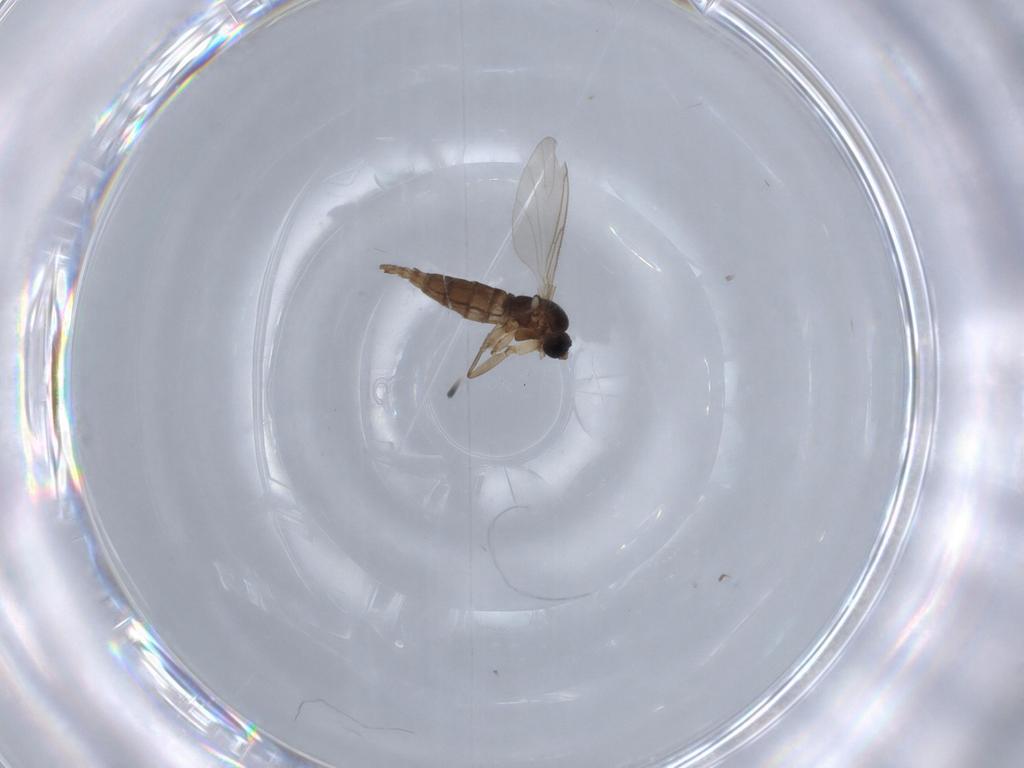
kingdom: Animalia
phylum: Arthropoda
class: Insecta
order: Diptera
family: Sciaridae
